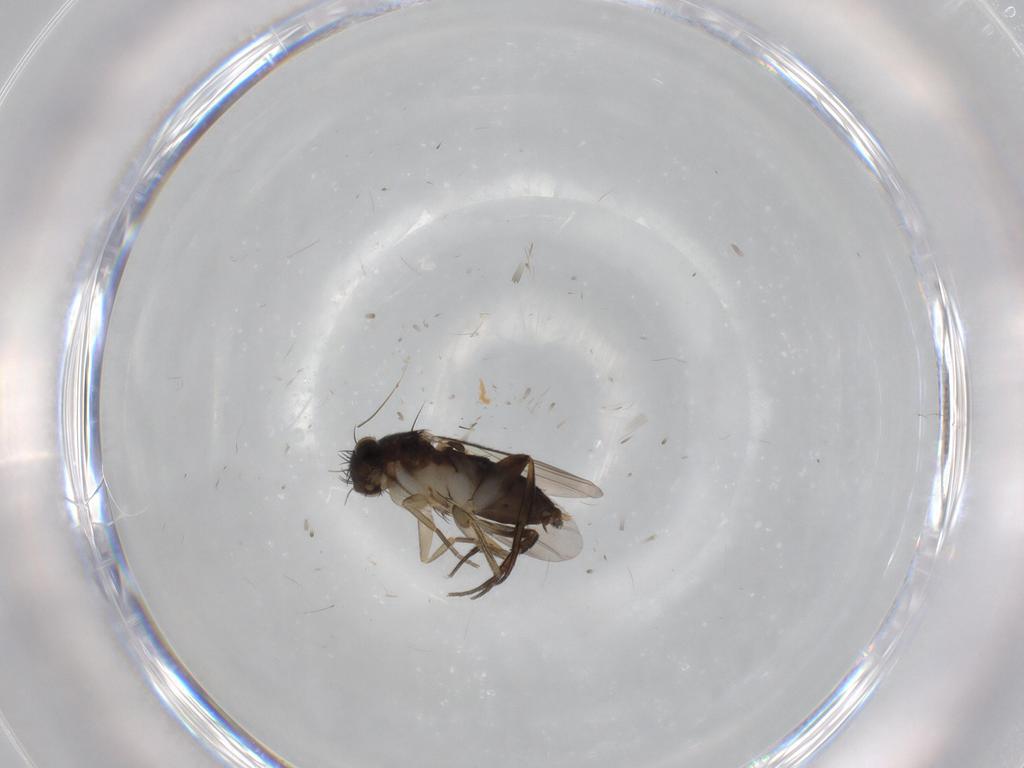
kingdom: Animalia
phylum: Arthropoda
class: Insecta
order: Diptera
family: Phoridae
